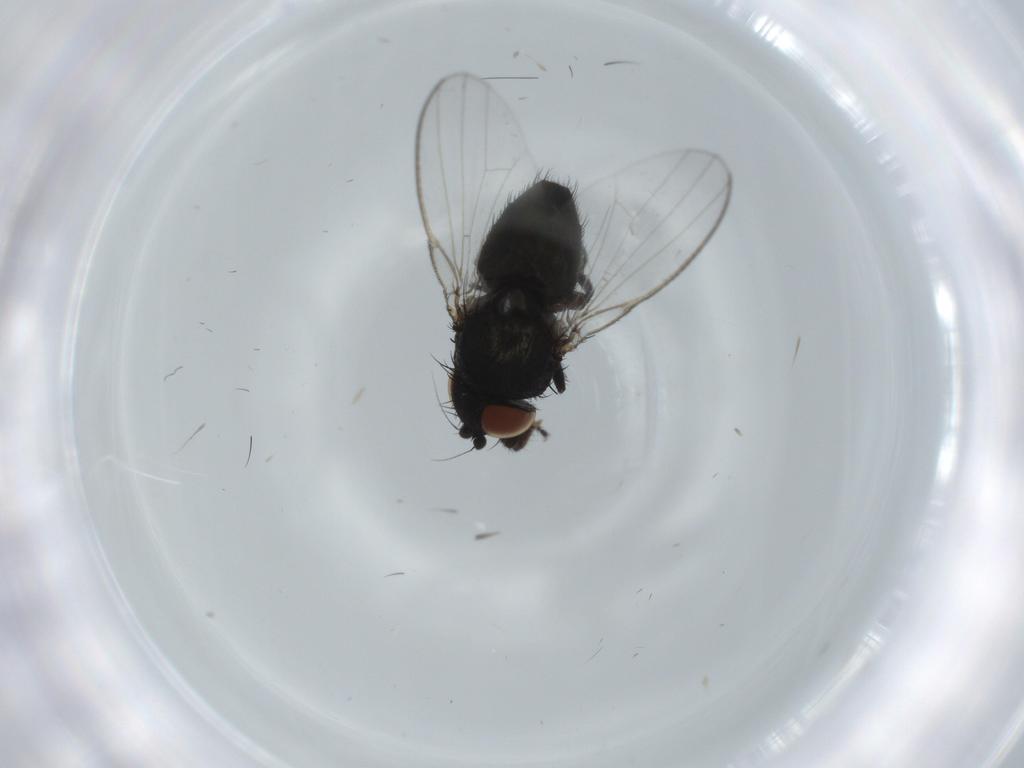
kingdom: Animalia
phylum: Arthropoda
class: Insecta
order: Diptera
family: Milichiidae
